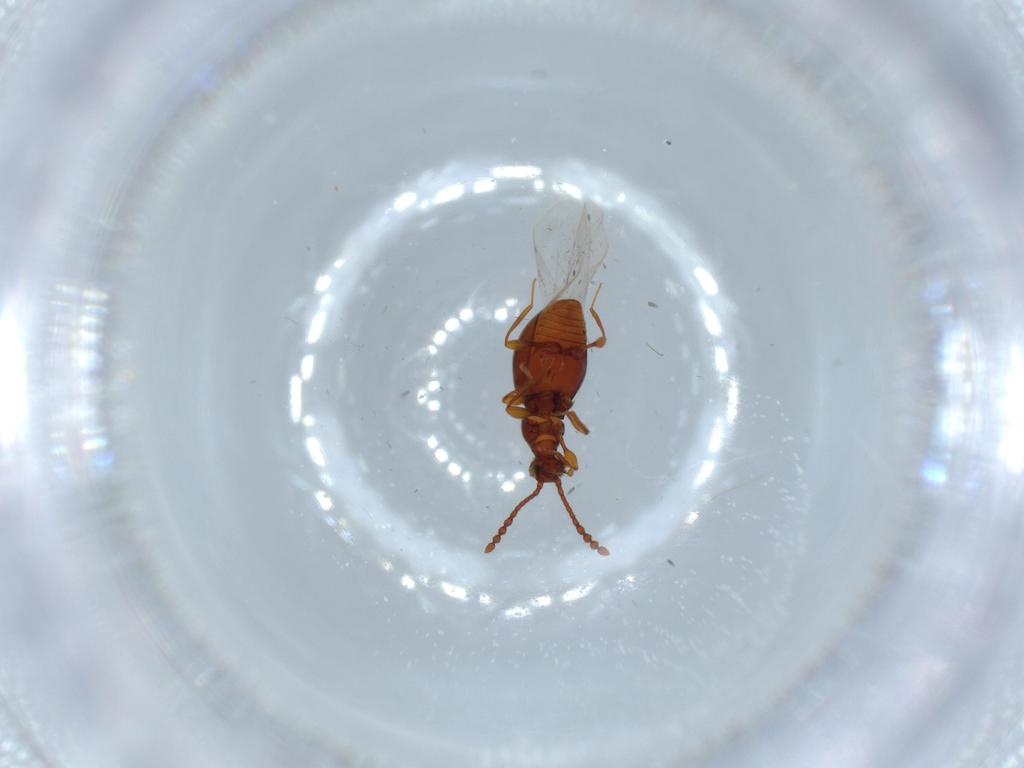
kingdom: Animalia
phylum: Arthropoda
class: Insecta
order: Coleoptera
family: Staphylinidae
